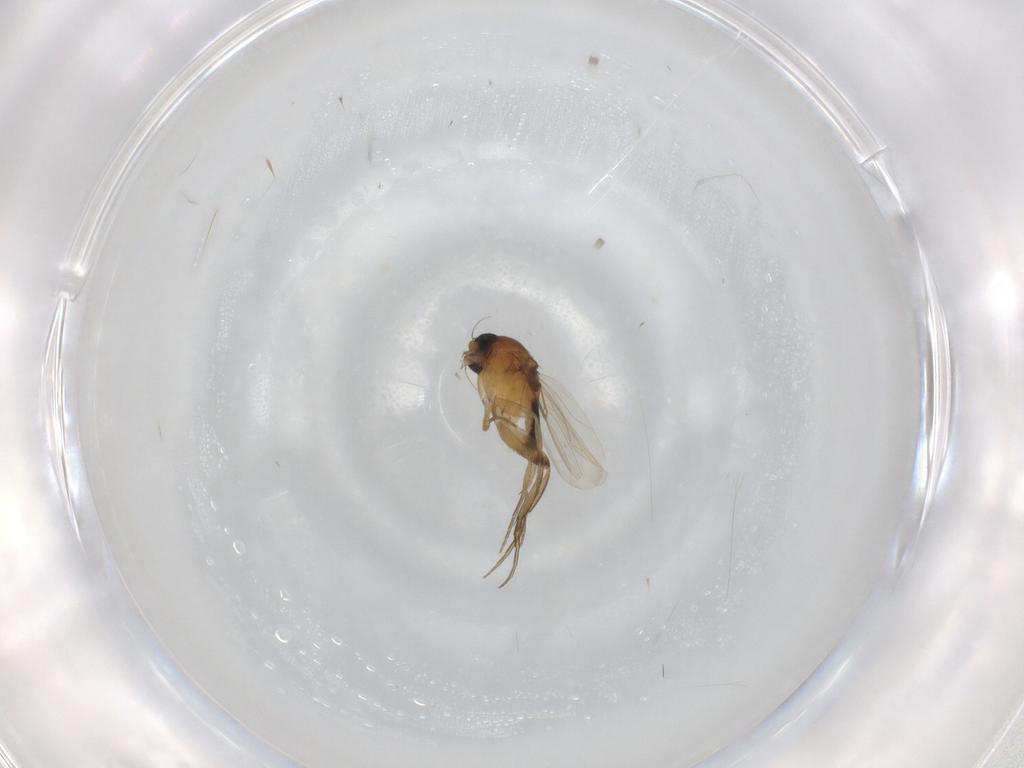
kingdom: Animalia
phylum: Arthropoda
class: Insecta
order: Diptera
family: Phoridae
